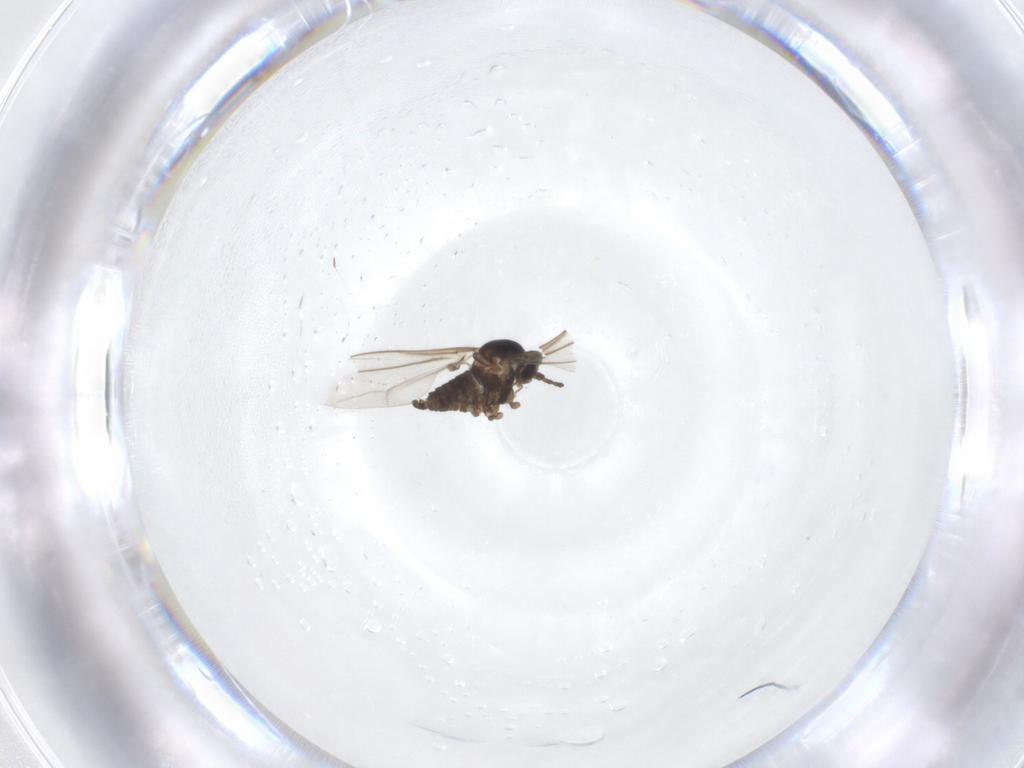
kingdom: Animalia
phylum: Arthropoda
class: Insecta
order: Diptera
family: Cecidomyiidae
